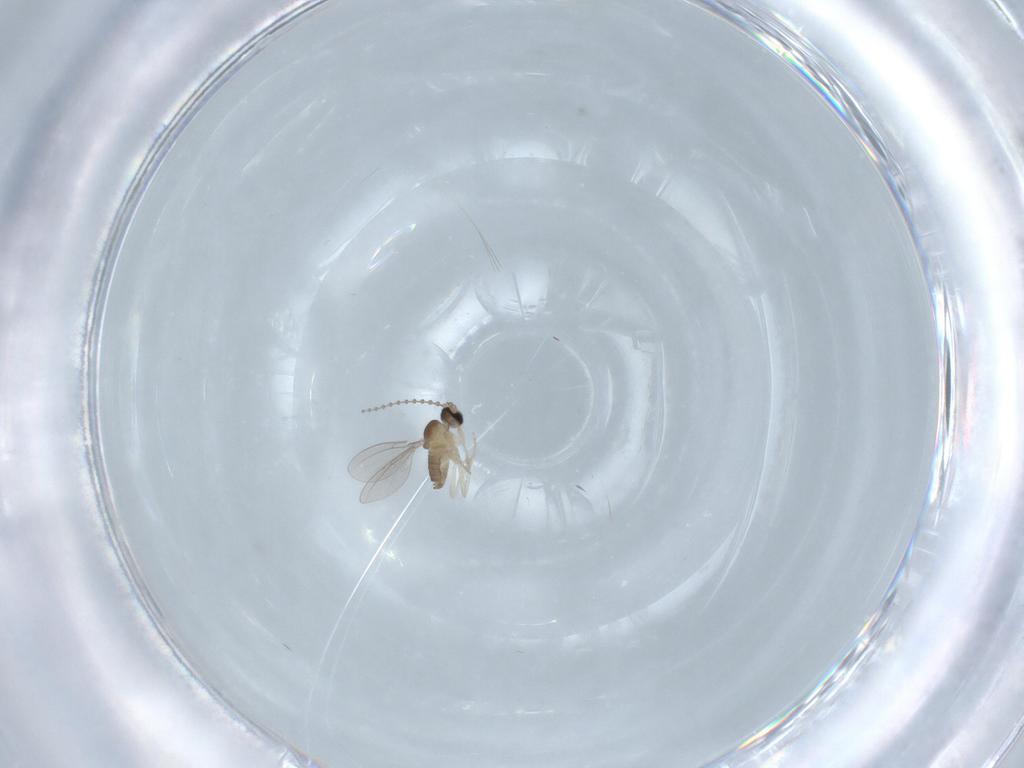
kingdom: Animalia
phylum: Arthropoda
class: Insecta
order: Diptera
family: Cecidomyiidae
